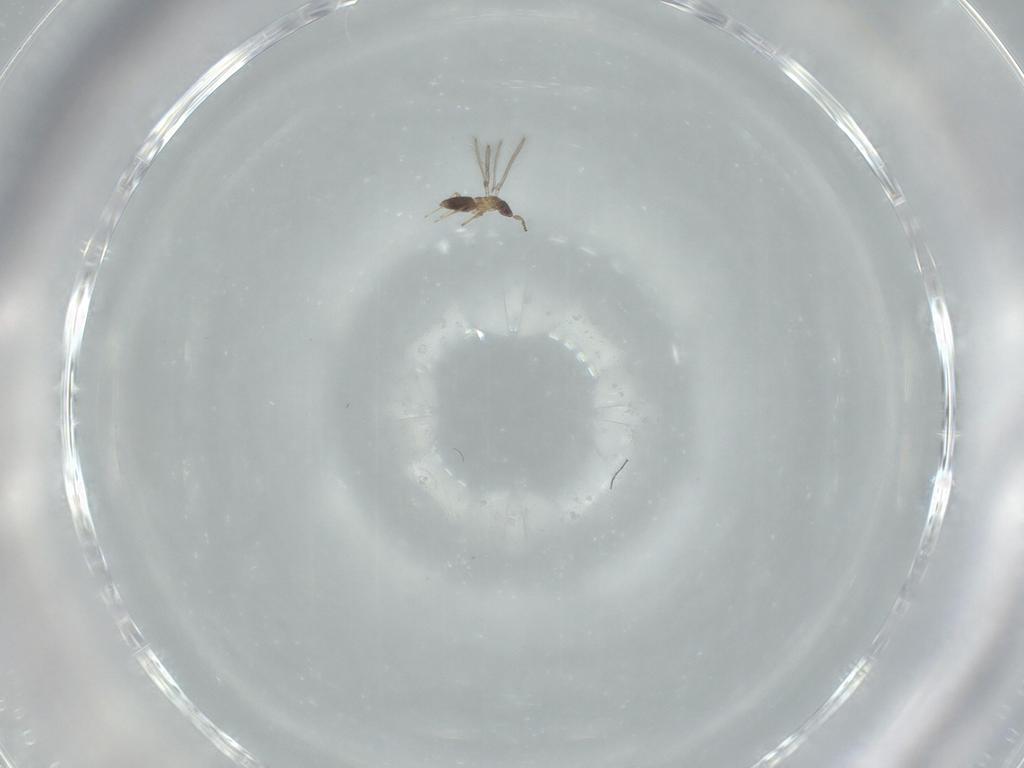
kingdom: Animalia
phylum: Arthropoda
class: Insecta
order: Hymenoptera
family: Mymaridae
